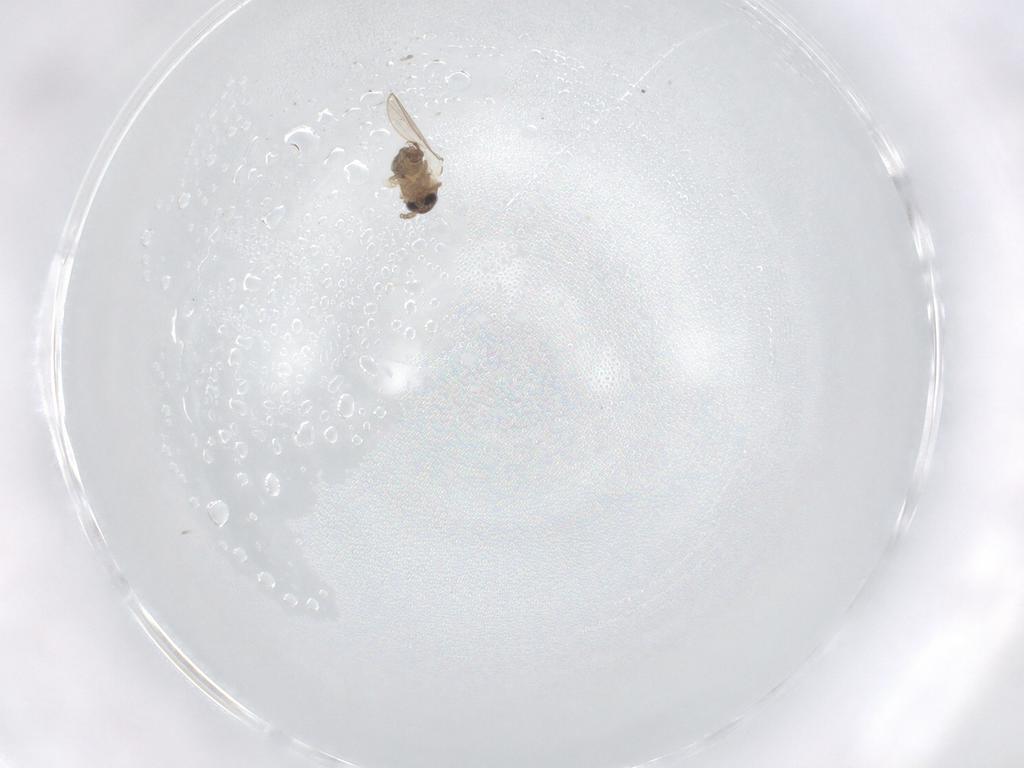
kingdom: Animalia
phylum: Arthropoda
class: Insecta
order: Diptera
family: Psychodidae
